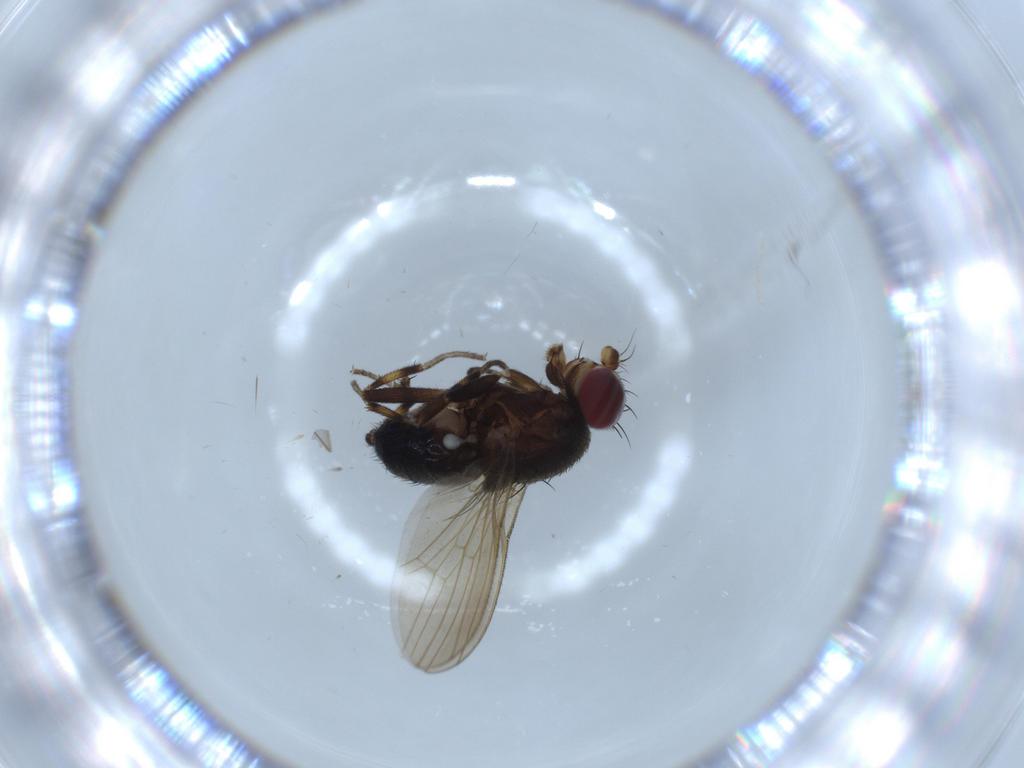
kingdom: Animalia
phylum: Arthropoda
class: Insecta
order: Diptera
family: Heleomyzidae
